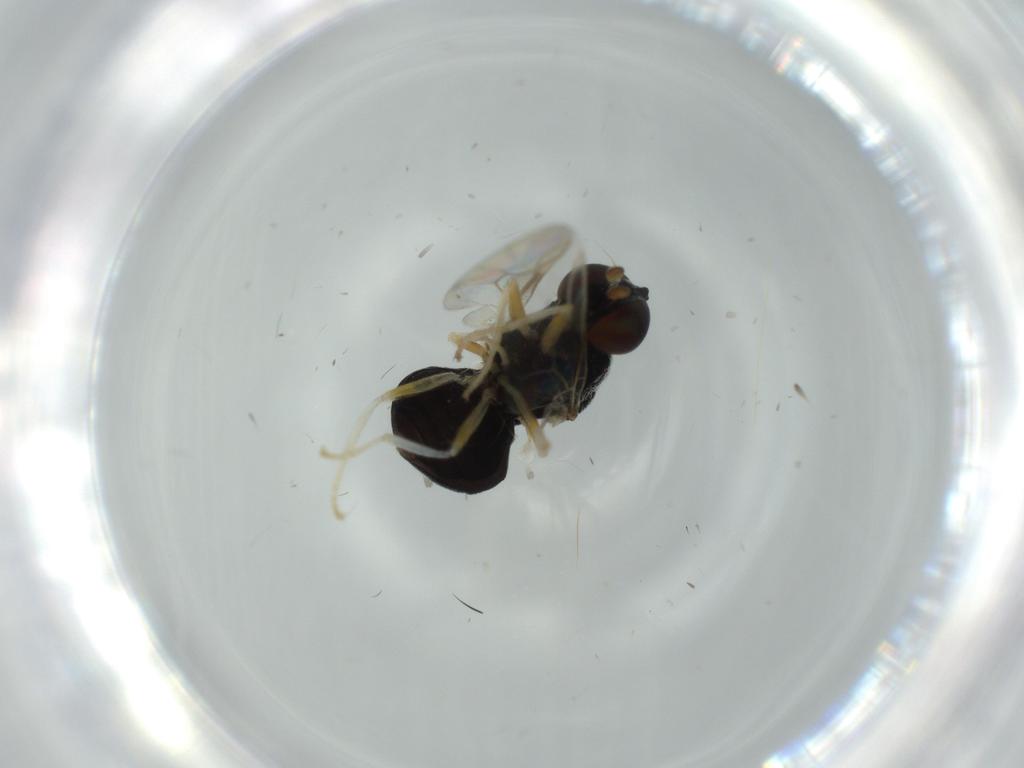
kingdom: Animalia
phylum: Arthropoda
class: Insecta
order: Diptera
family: Stratiomyidae
